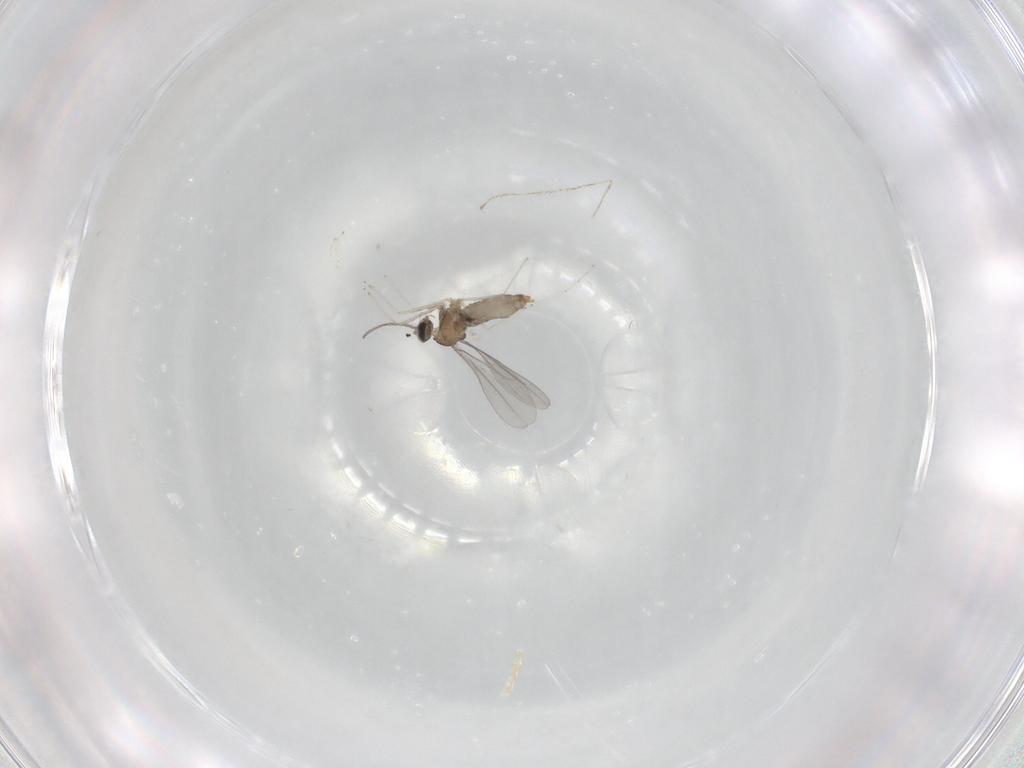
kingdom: Animalia
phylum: Arthropoda
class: Insecta
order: Diptera
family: Cecidomyiidae
